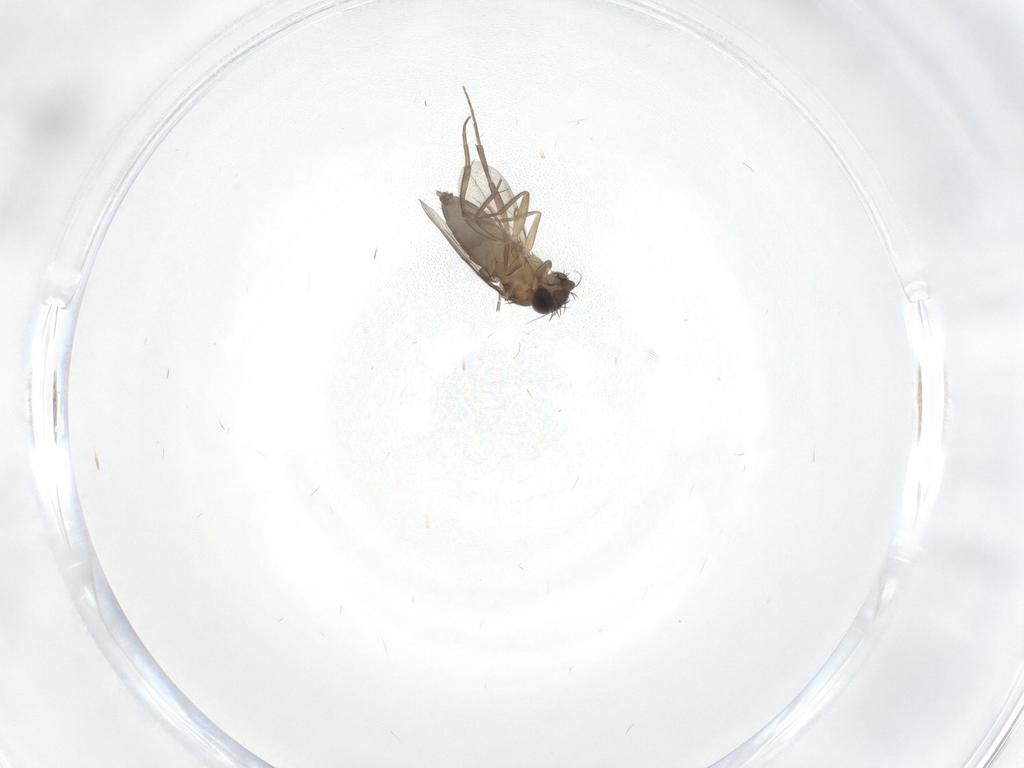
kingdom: Animalia
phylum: Arthropoda
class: Insecta
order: Diptera
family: Phoridae
